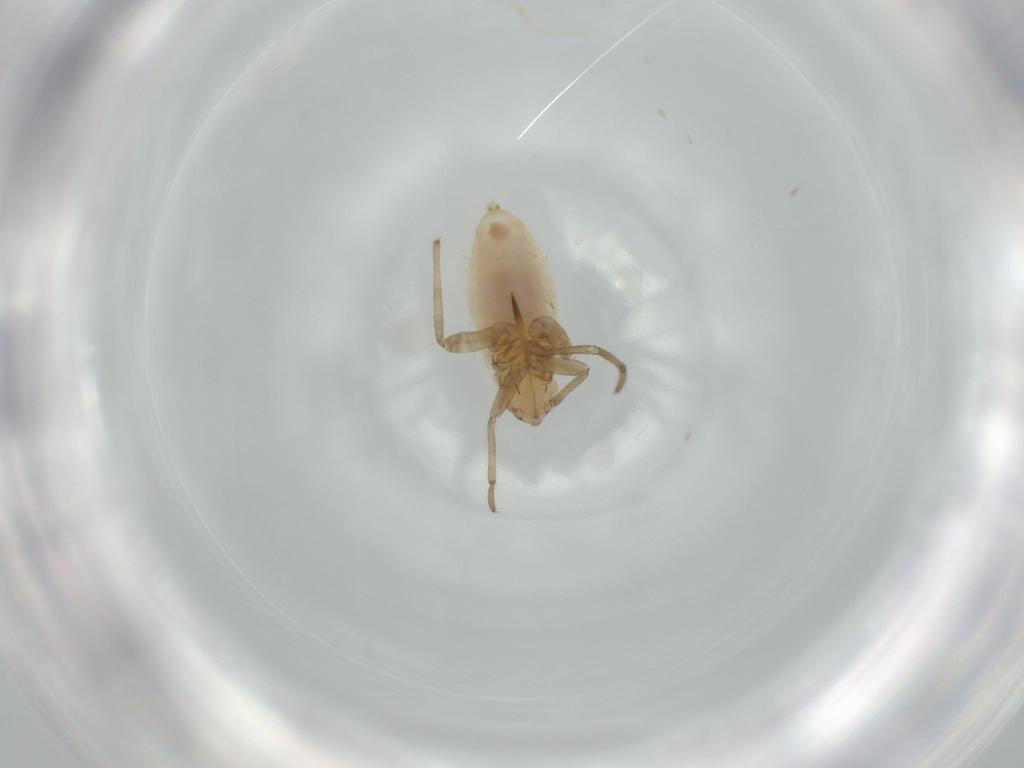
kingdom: Animalia
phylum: Arthropoda
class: Insecta
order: Hemiptera
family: Miridae
